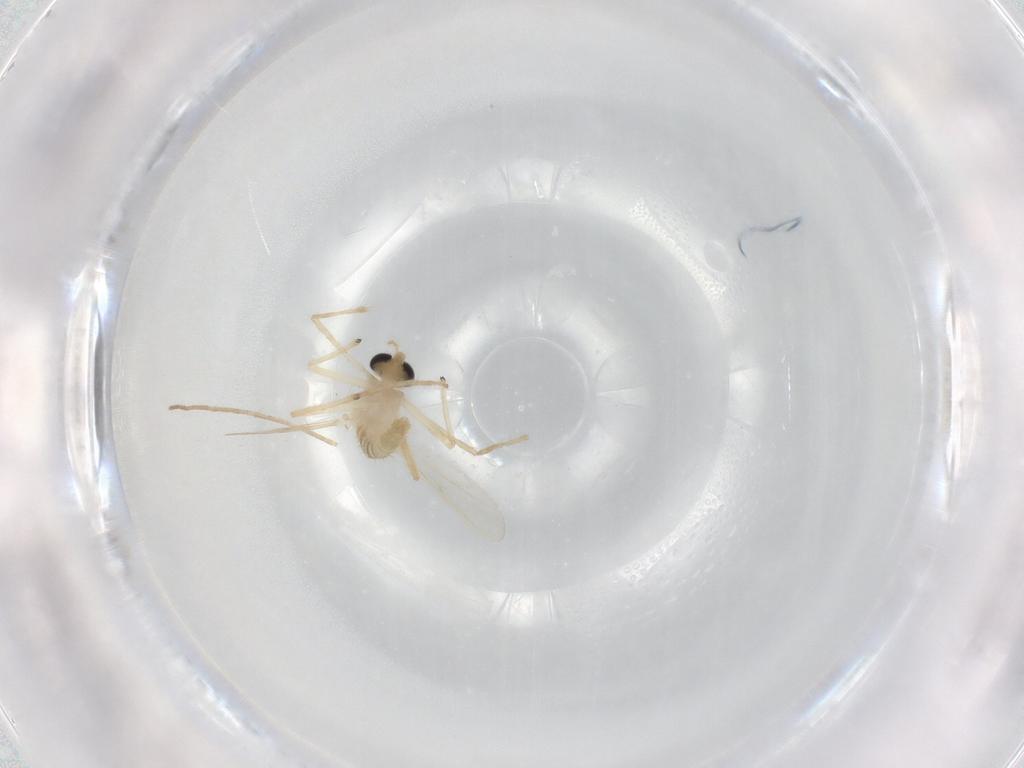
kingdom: Animalia
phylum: Arthropoda
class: Insecta
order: Diptera
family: Chironomidae
